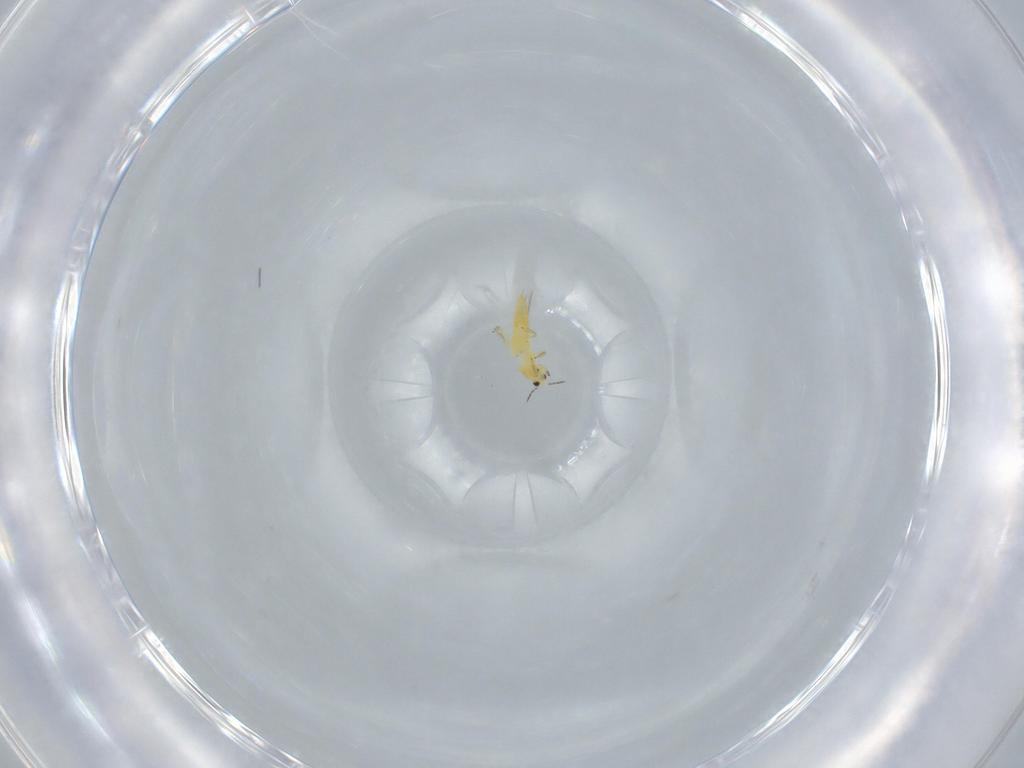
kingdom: Animalia
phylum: Arthropoda
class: Insecta
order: Thysanoptera
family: Thripidae
